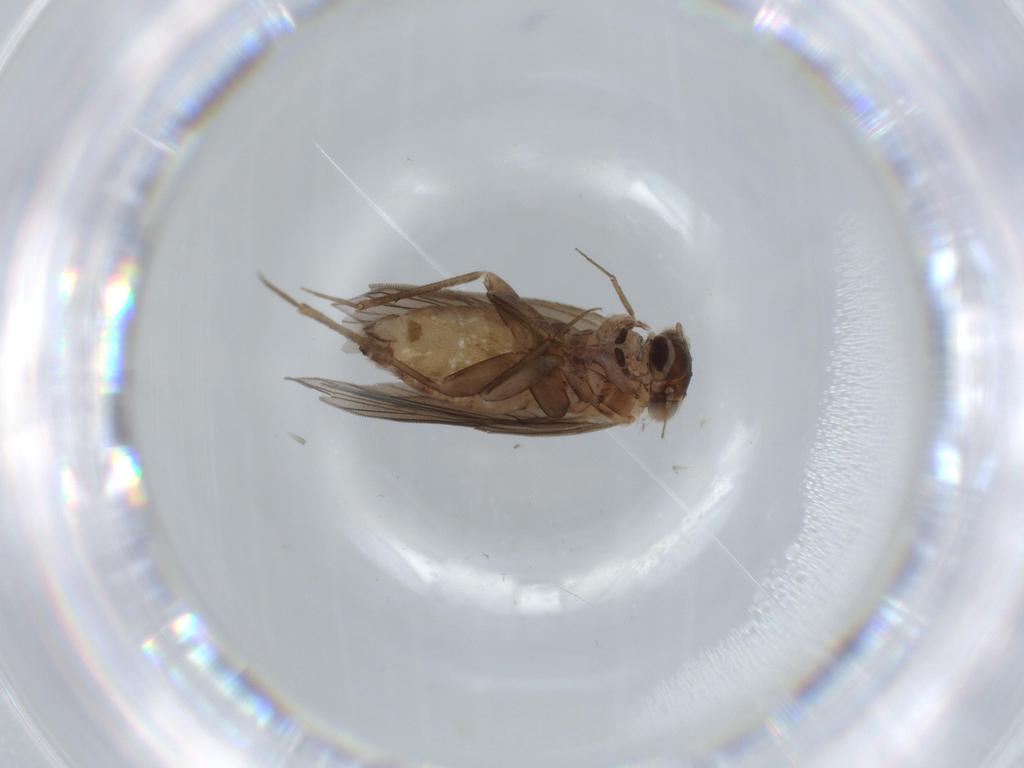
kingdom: Animalia
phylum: Arthropoda
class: Insecta
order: Psocodea
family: Lepidopsocidae
